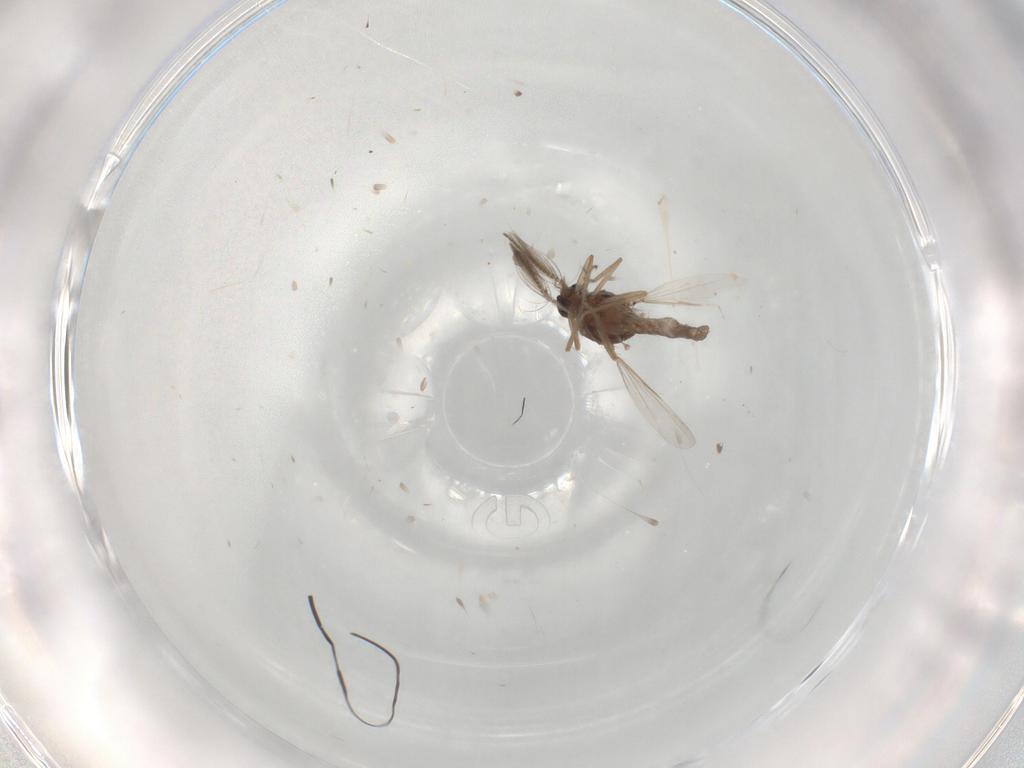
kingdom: Animalia
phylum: Arthropoda
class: Insecta
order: Diptera
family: Ceratopogonidae
